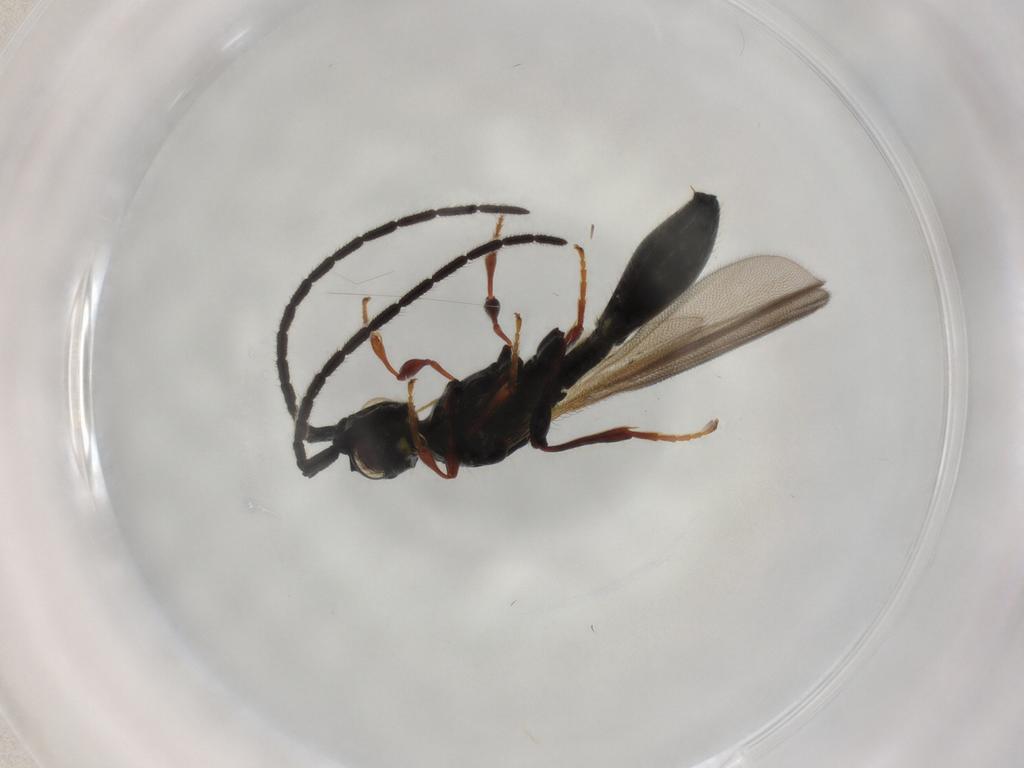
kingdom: Animalia
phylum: Arthropoda
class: Insecta
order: Hymenoptera
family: Diapriidae
